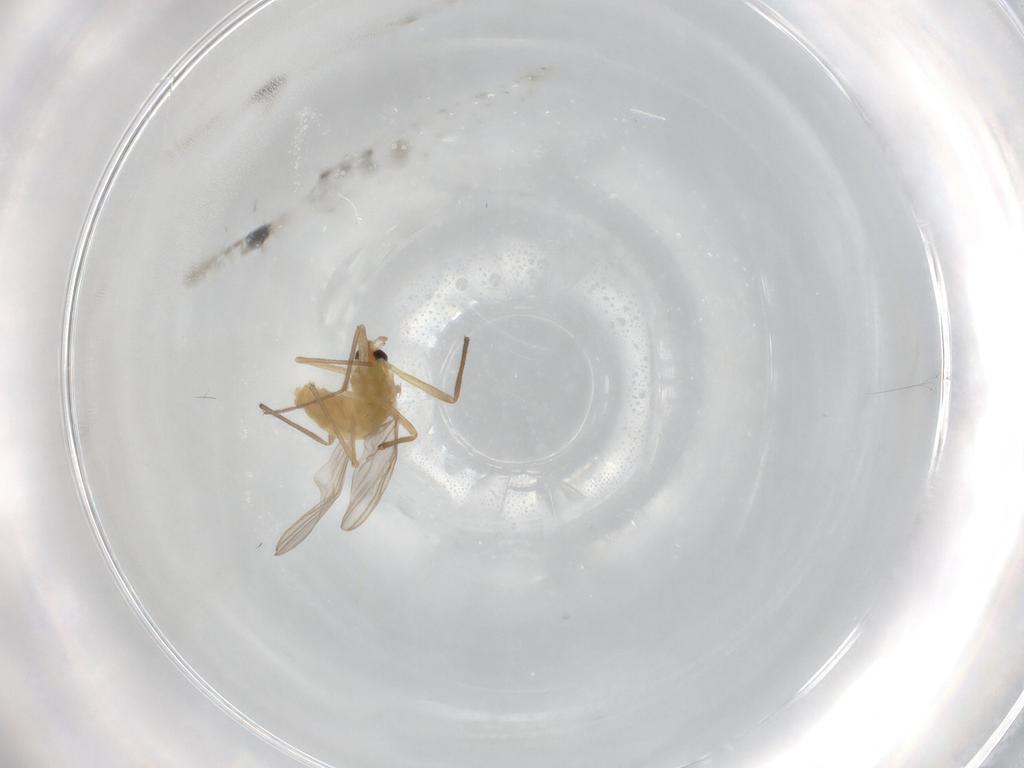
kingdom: Animalia
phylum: Arthropoda
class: Insecta
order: Diptera
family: Chironomidae
